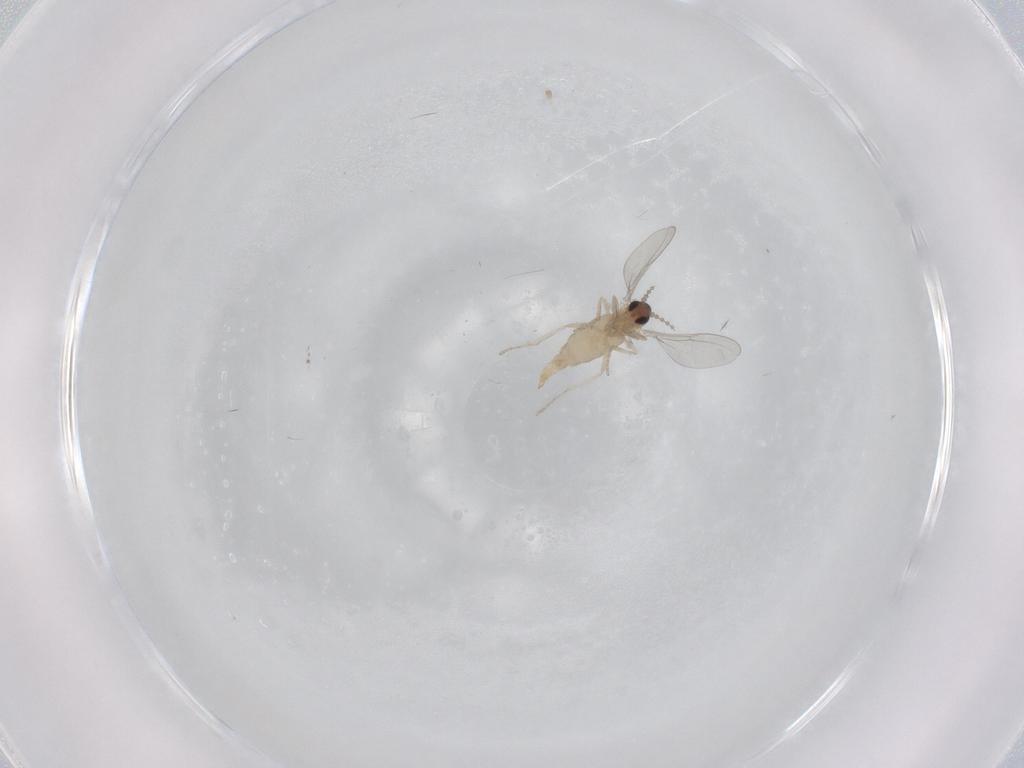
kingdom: Animalia
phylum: Arthropoda
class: Insecta
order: Diptera
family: Cecidomyiidae
